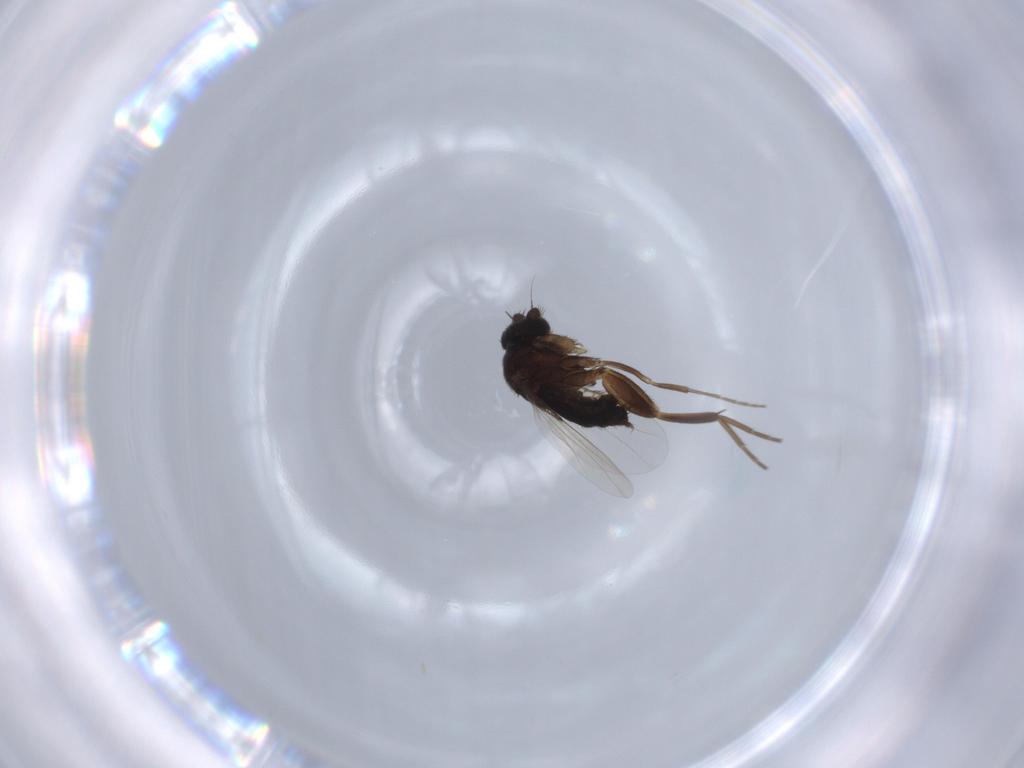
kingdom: Animalia
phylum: Arthropoda
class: Insecta
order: Diptera
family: Phoridae
